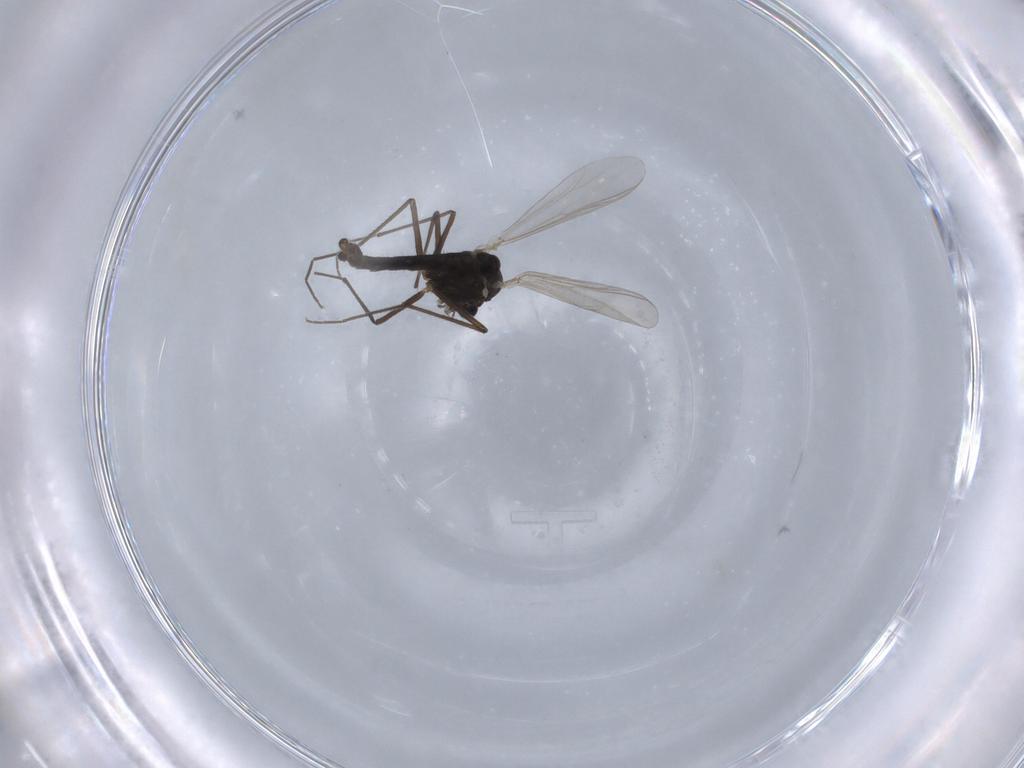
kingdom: Animalia
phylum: Arthropoda
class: Insecta
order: Diptera
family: Chironomidae
